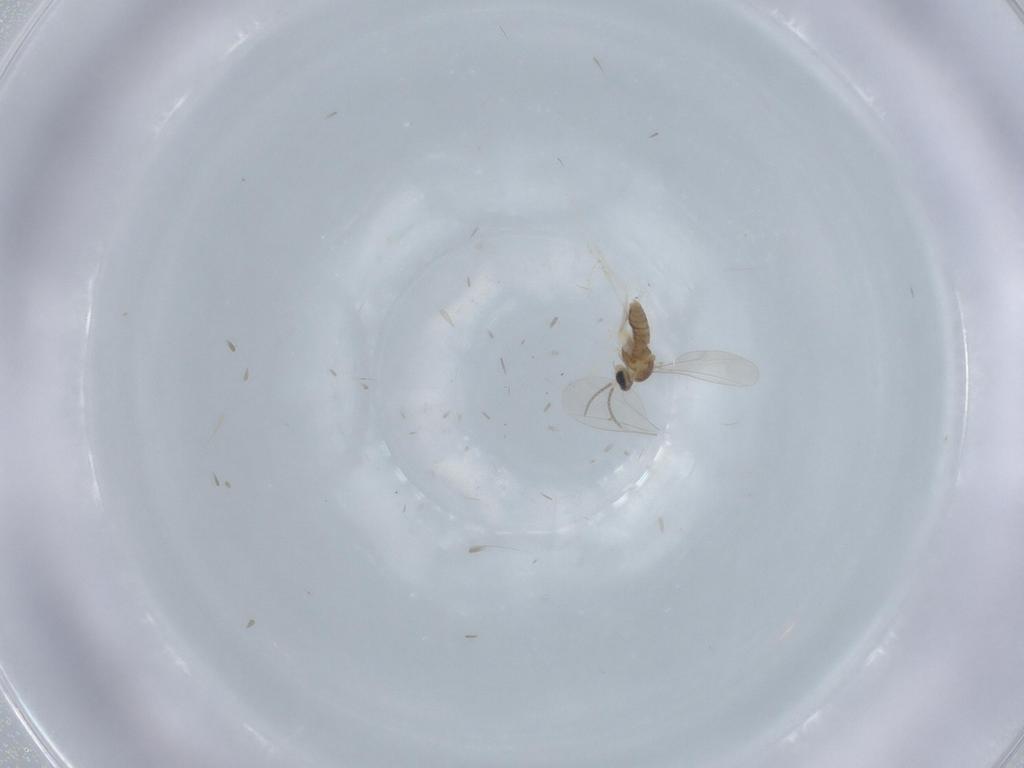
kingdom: Animalia
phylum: Arthropoda
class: Insecta
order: Diptera
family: Cecidomyiidae
